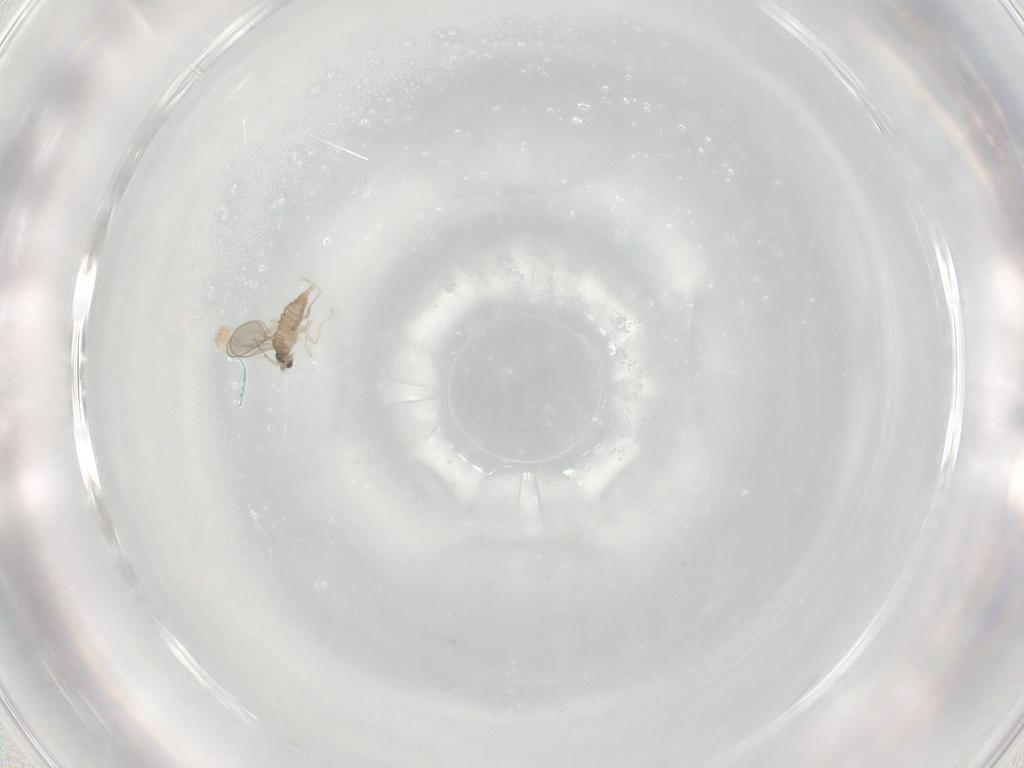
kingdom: Animalia
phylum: Arthropoda
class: Insecta
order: Diptera
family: Cecidomyiidae
